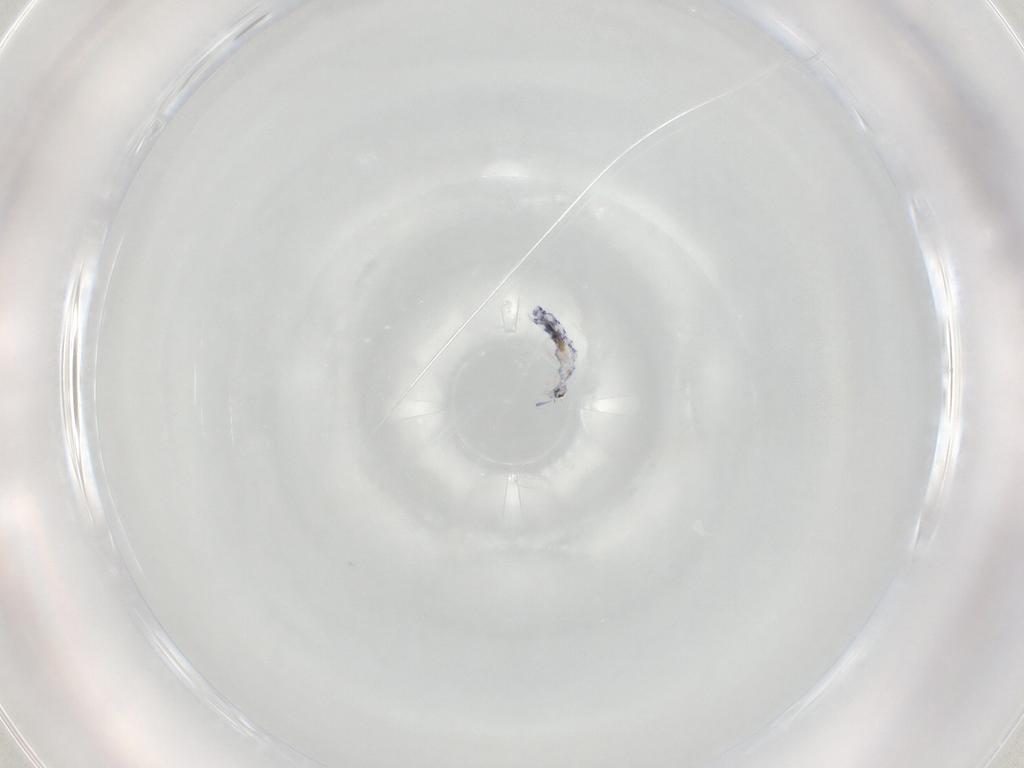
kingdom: Animalia
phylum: Arthropoda
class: Collembola
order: Entomobryomorpha
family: Entomobryidae
